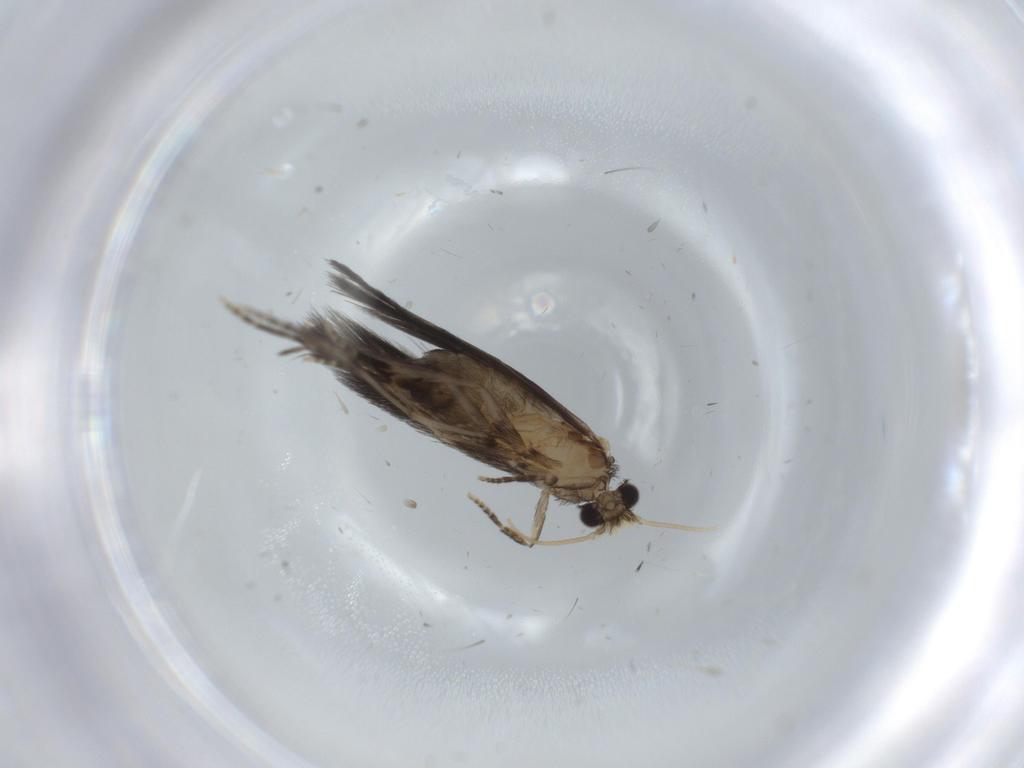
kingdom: Animalia
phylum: Arthropoda
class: Insecta
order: Trichoptera
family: Hydroptilidae
